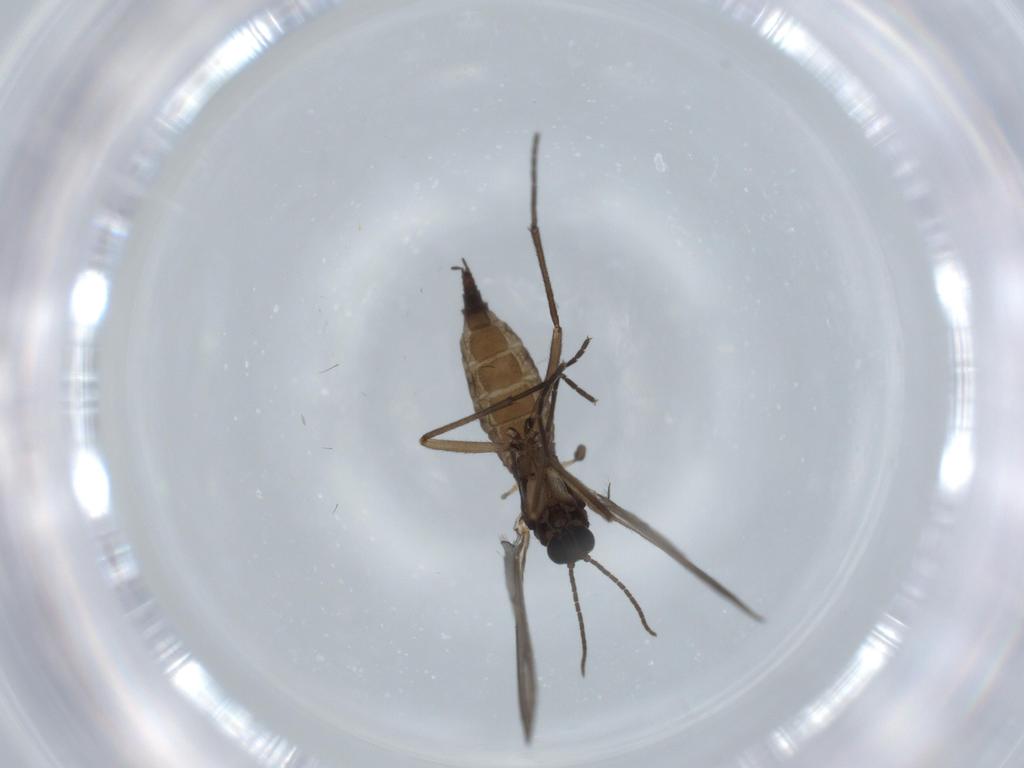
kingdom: Animalia
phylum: Arthropoda
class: Insecta
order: Diptera
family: Sciaridae
